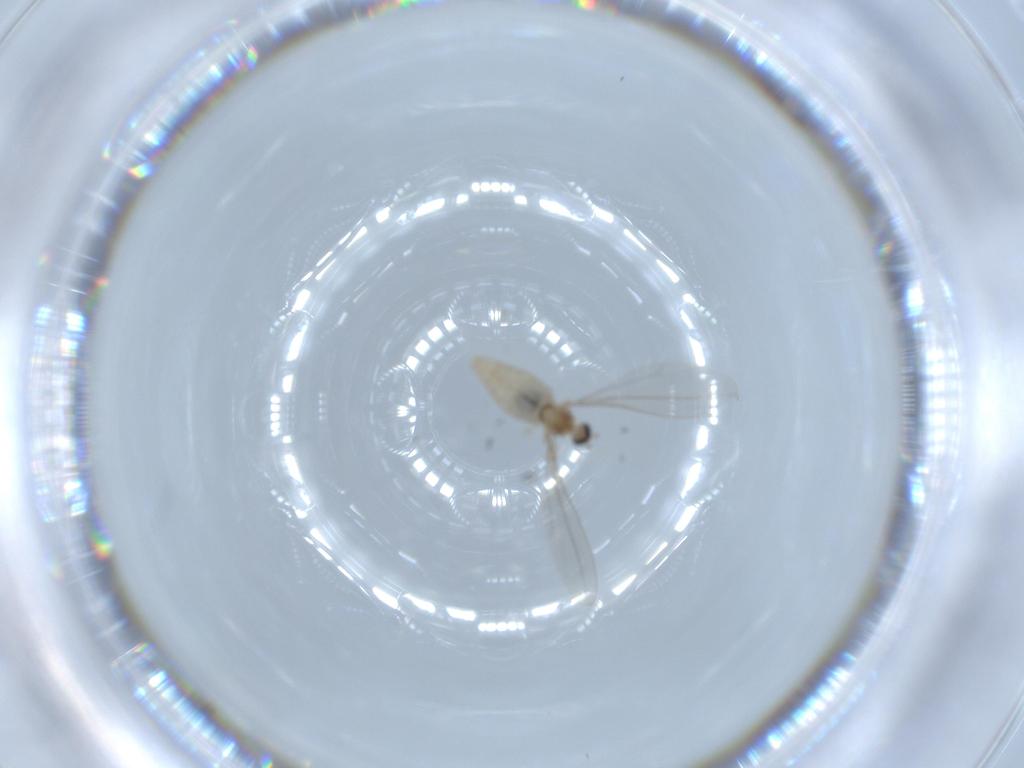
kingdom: Animalia
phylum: Arthropoda
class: Insecta
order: Diptera
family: Cecidomyiidae
